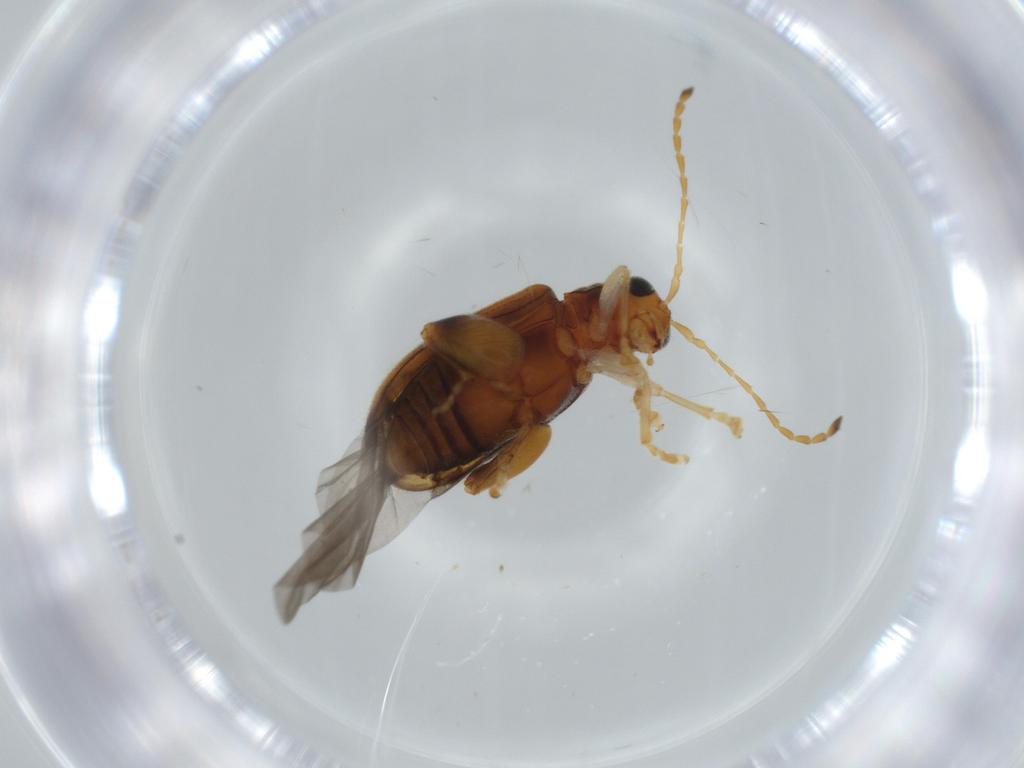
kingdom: Animalia
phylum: Arthropoda
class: Insecta
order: Coleoptera
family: Chrysomelidae
